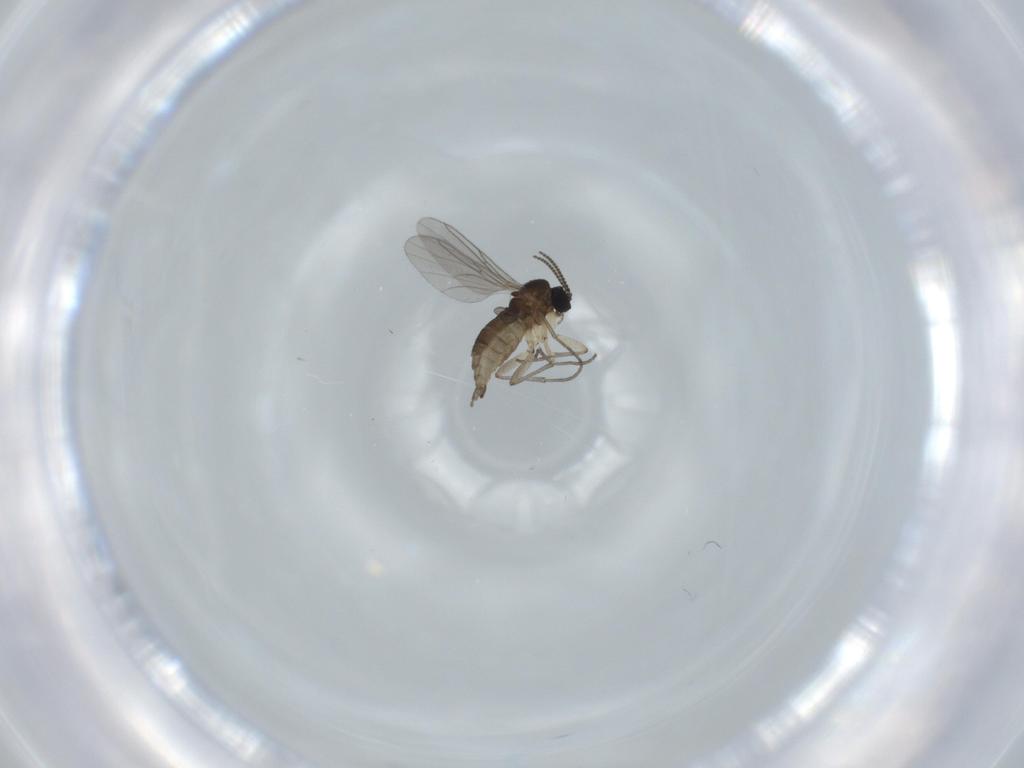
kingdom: Animalia
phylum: Arthropoda
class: Insecta
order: Diptera
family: Sciaridae
